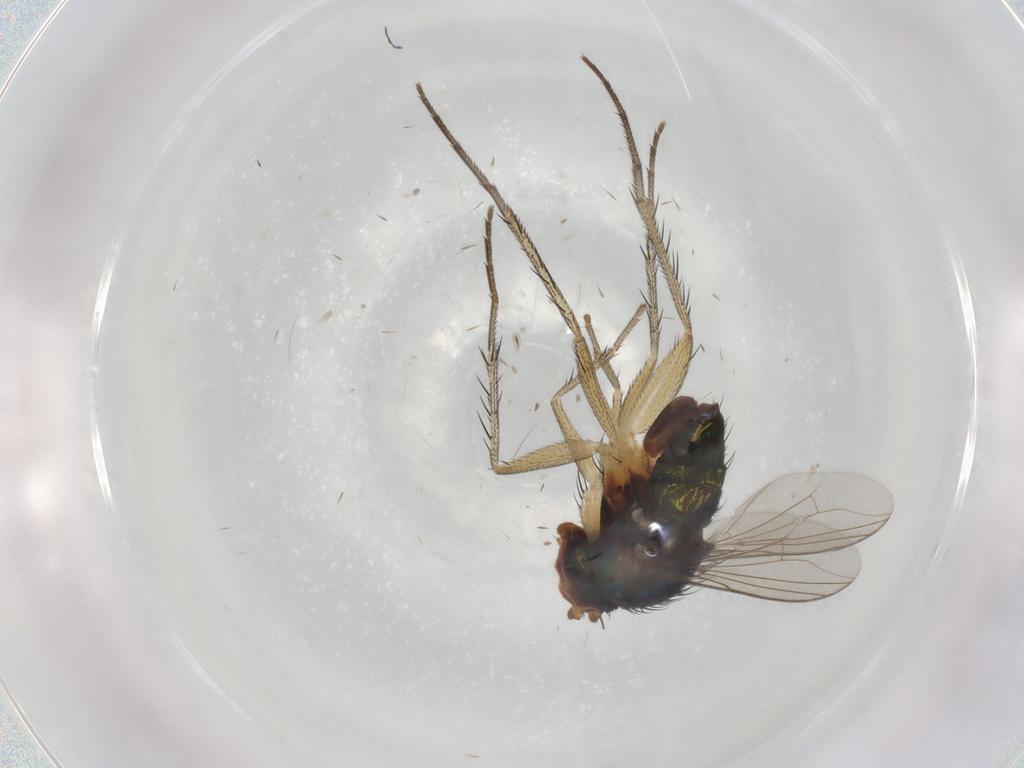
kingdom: Animalia
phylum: Arthropoda
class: Insecta
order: Diptera
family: Dolichopodidae
